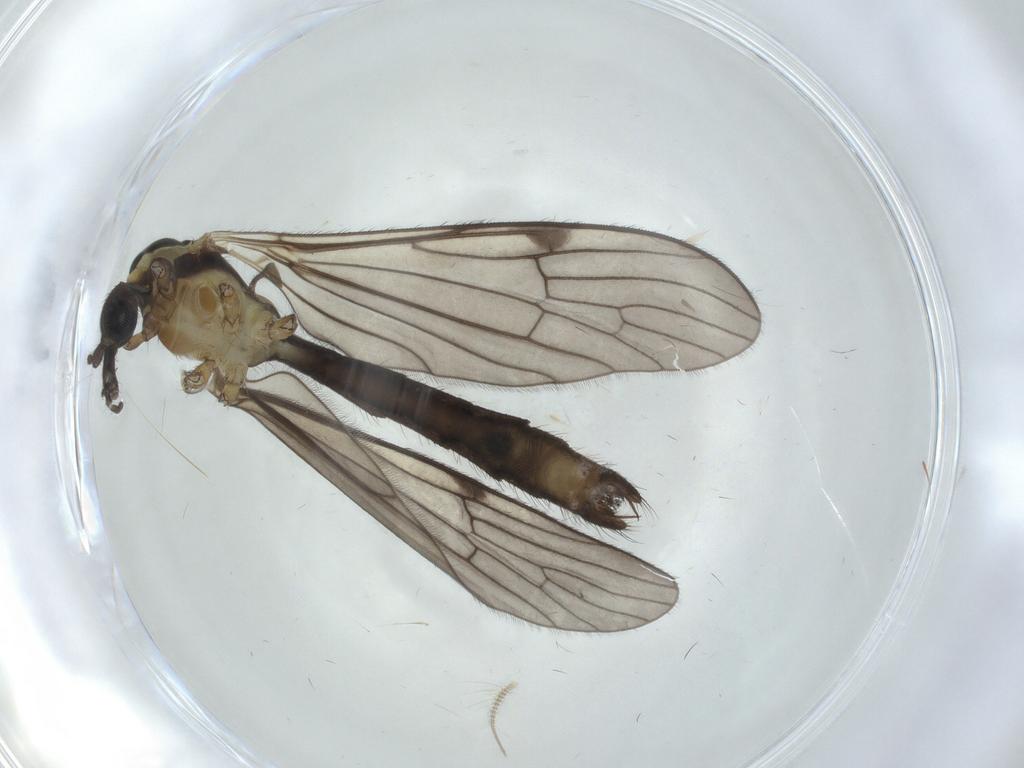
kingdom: Animalia
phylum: Arthropoda
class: Insecta
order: Diptera
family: Limoniidae
